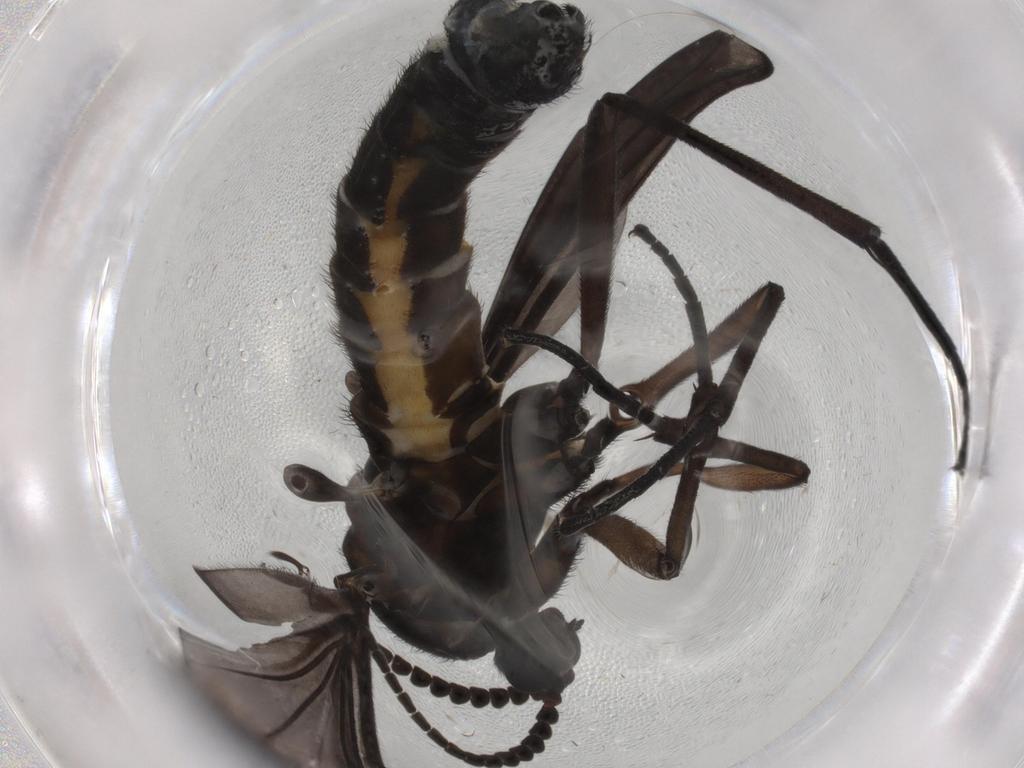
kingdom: Animalia
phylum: Arthropoda
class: Insecta
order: Diptera
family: Phoridae
